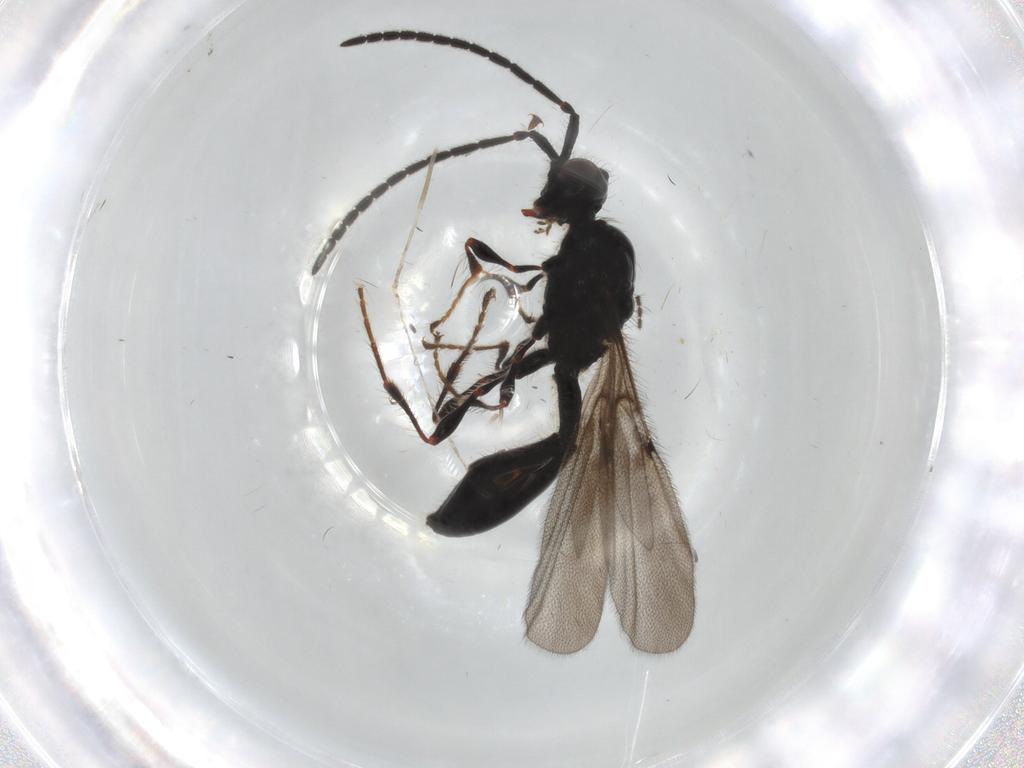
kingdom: Animalia
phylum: Arthropoda
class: Insecta
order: Hymenoptera
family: Diapriidae
